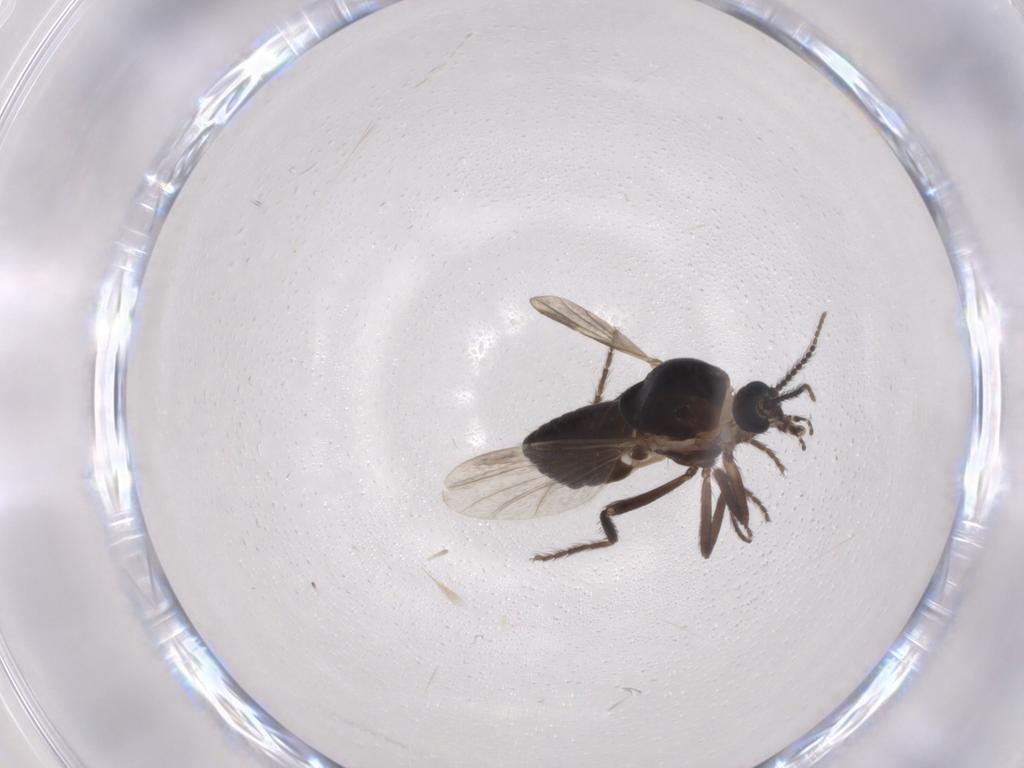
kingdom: Animalia
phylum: Arthropoda
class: Insecta
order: Diptera
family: Ceratopogonidae
